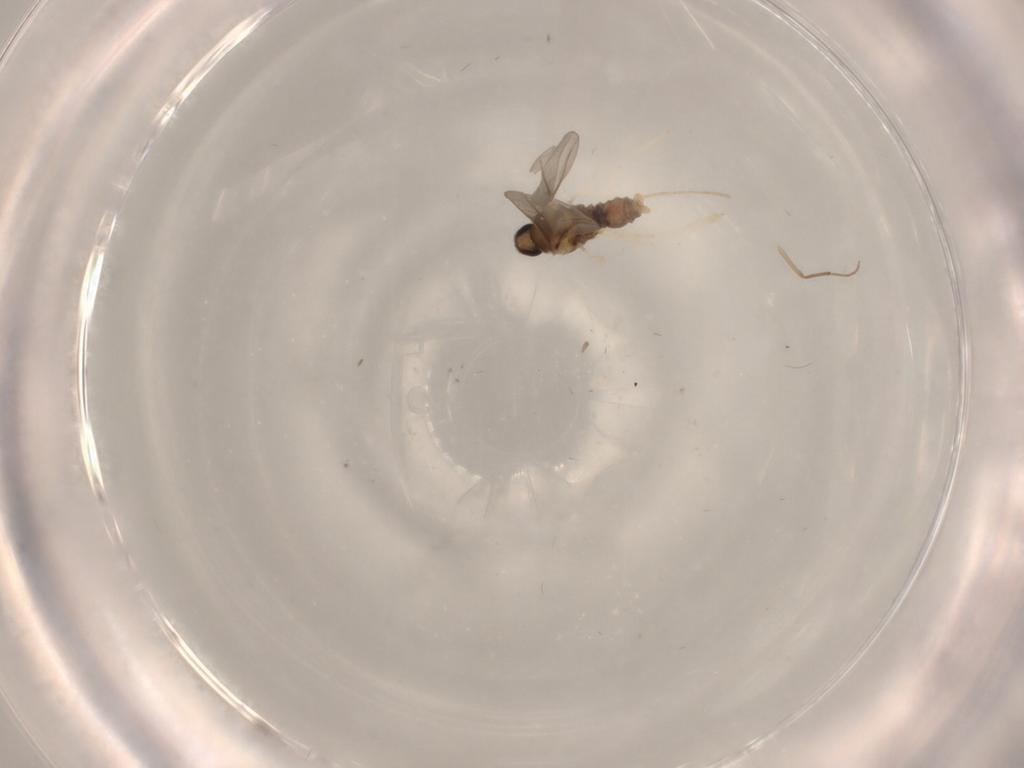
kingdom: Animalia
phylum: Arthropoda
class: Insecta
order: Diptera
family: Cecidomyiidae
